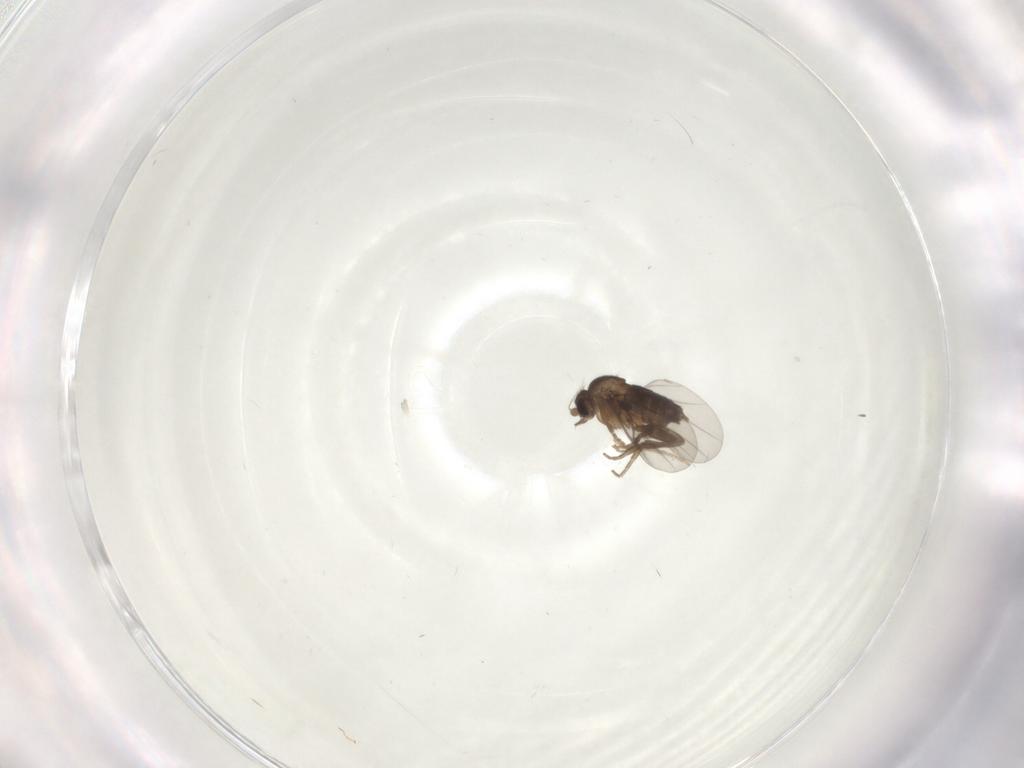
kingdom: Animalia
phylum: Arthropoda
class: Insecta
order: Diptera
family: Chironomidae
